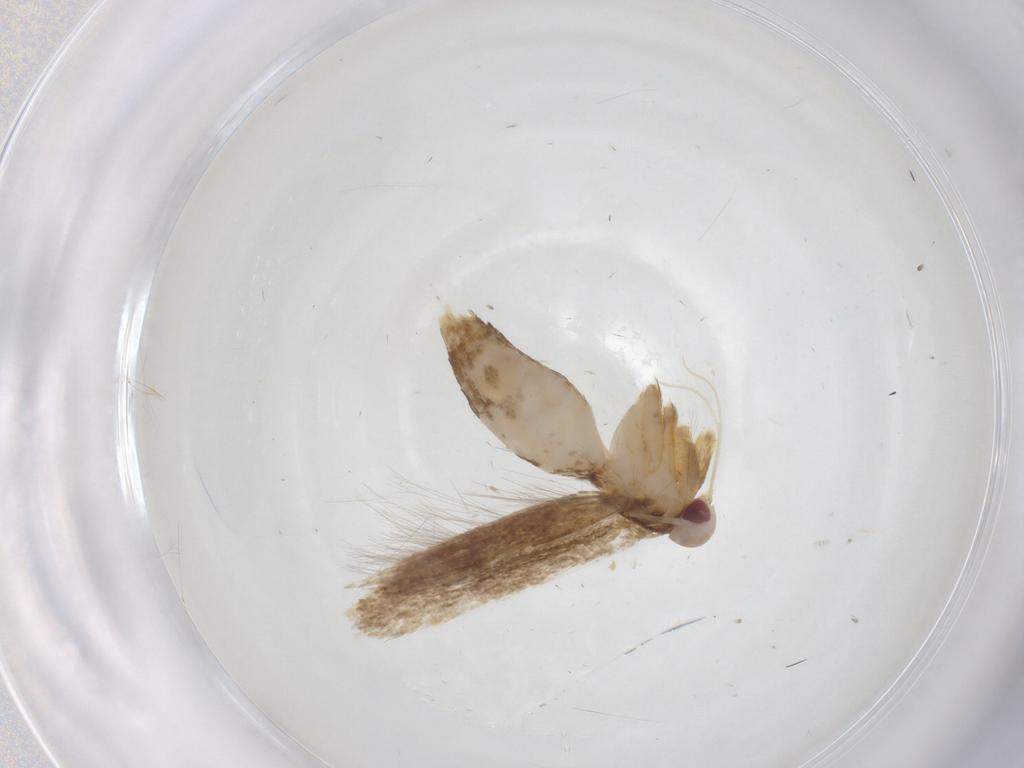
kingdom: Animalia
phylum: Arthropoda
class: Insecta
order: Lepidoptera
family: Cosmopterigidae
